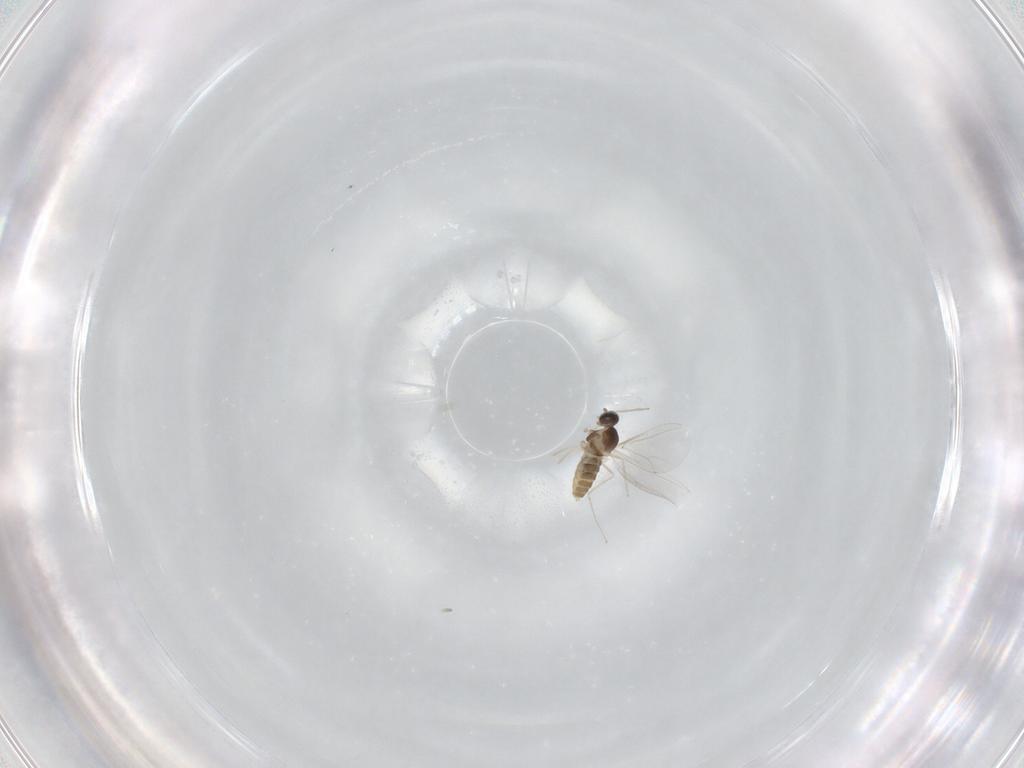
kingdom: Animalia
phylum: Arthropoda
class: Insecta
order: Diptera
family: Cecidomyiidae
